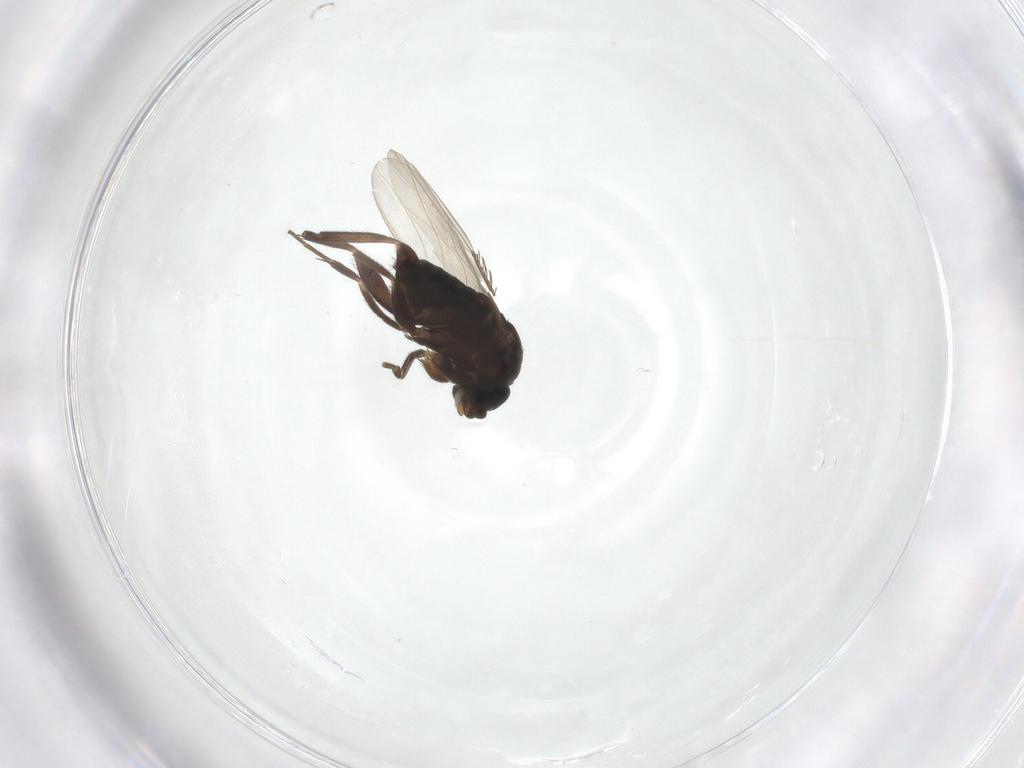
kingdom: Animalia
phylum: Arthropoda
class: Insecta
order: Diptera
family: Phoridae
